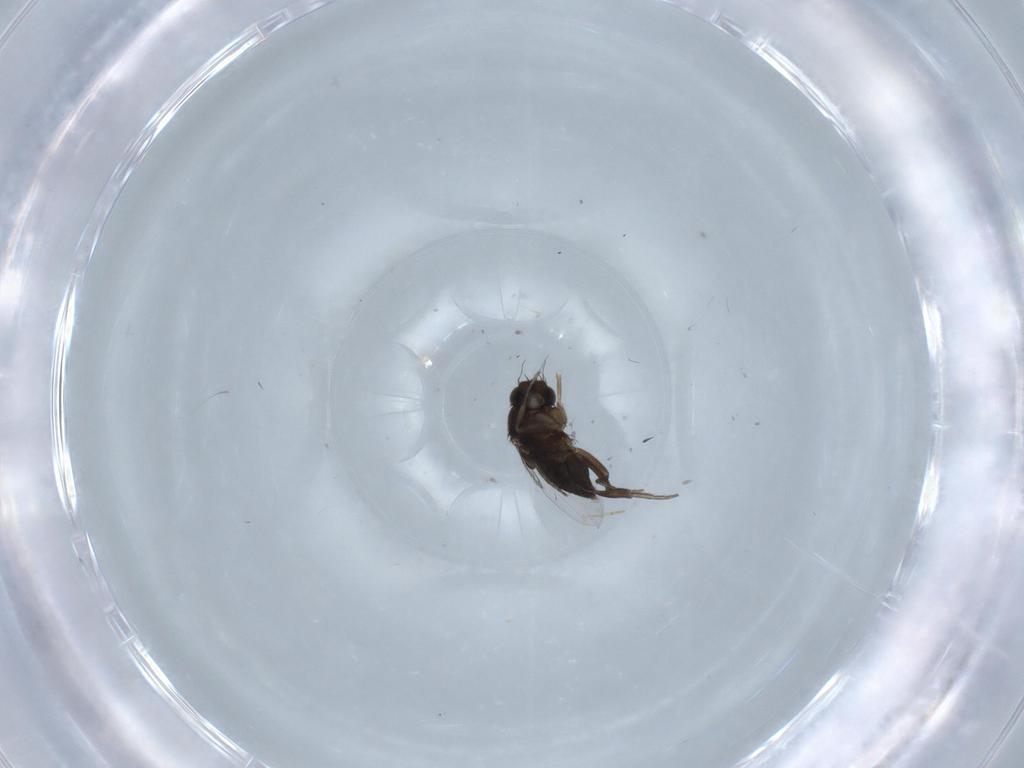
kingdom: Animalia
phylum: Arthropoda
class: Insecta
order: Diptera
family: Phoridae
